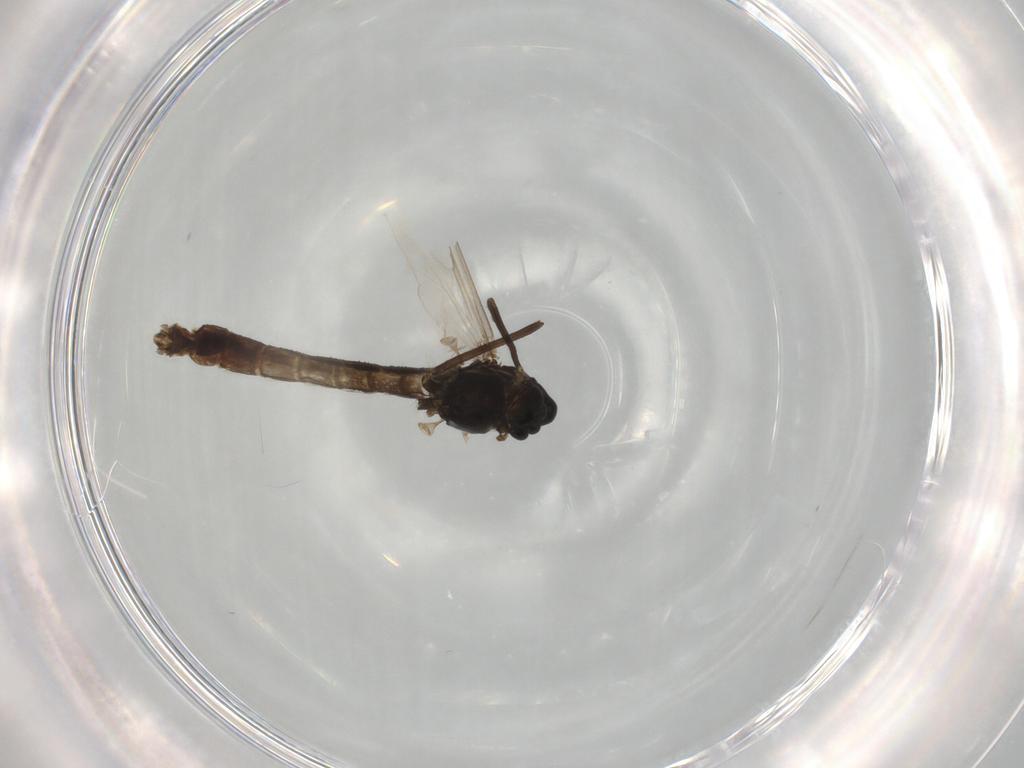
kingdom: Animalia
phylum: Arthropoda
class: Insecta
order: Diptera
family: Chironomidae
